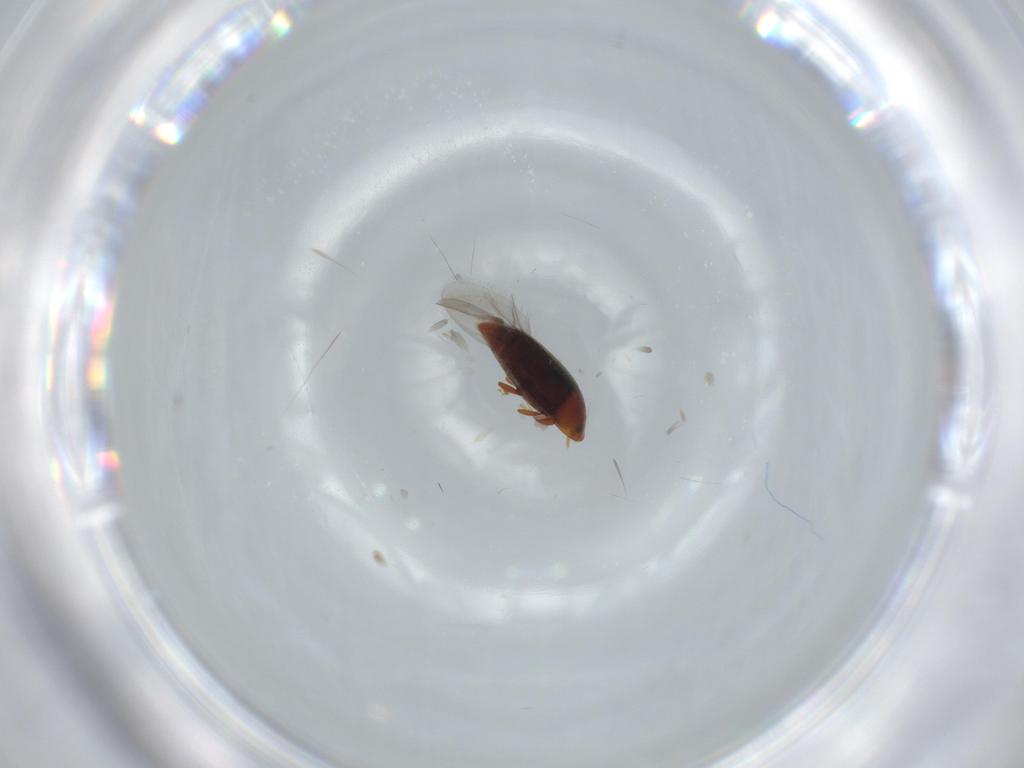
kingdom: Animalia
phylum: Arthropoda
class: Insecta
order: Coleoptera
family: Corylophidae
